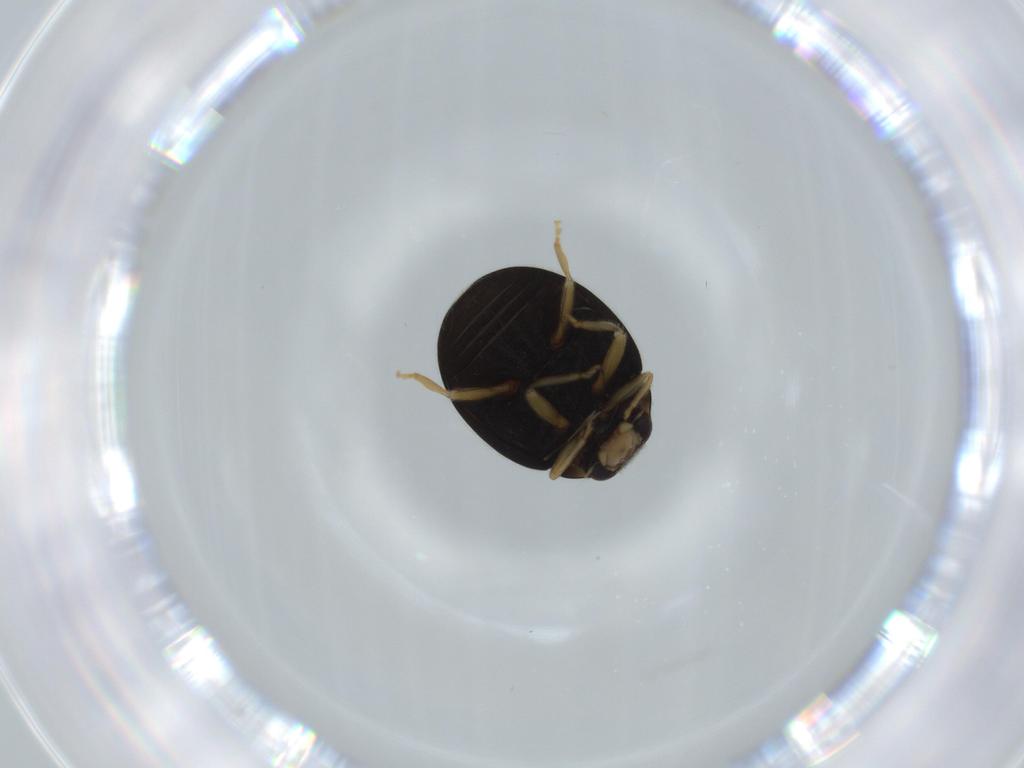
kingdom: Animalia
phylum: Arthropoda
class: Insecta
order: Coleoptera
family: Coccinellidae
